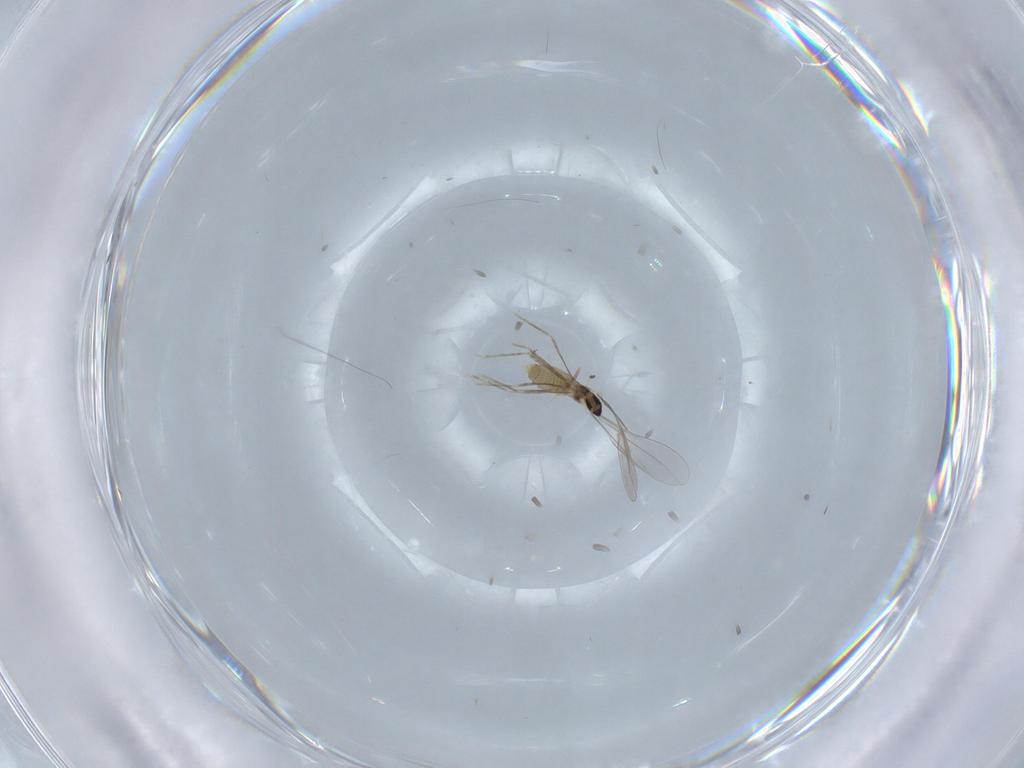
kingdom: Animalia
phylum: Arthropoda
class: Insecta
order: Diptera
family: Cecidomyiidae
